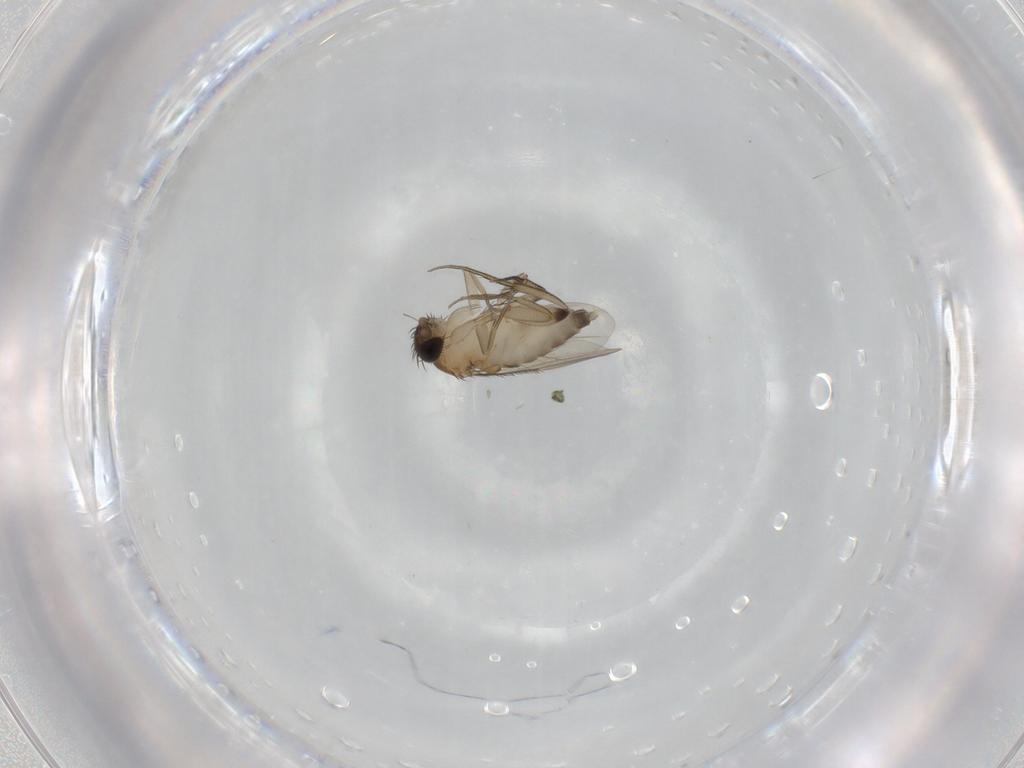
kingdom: Animalia
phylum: Arthropoda
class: Insecta
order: Diptera
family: Phoridae
